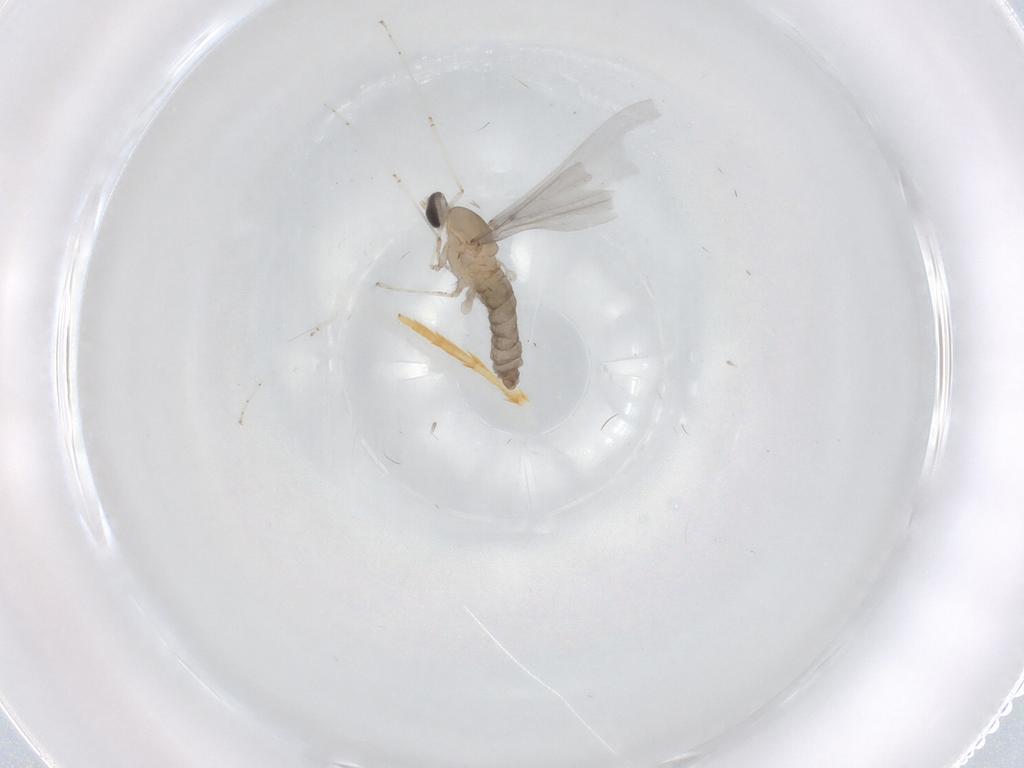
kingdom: Animalia
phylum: Arthropoda
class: Insecta
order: Diptera
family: Cecidomyiidae
